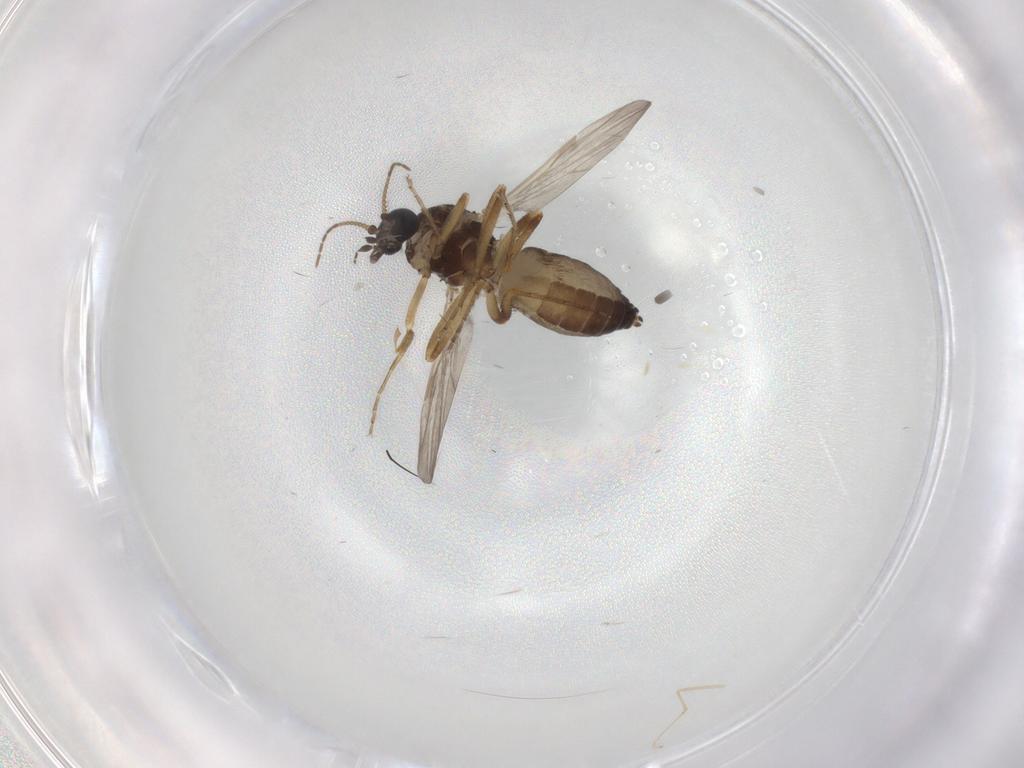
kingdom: Animalia
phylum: Arthropoda
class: Insecta
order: Diptera
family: Ceratopogonidae
